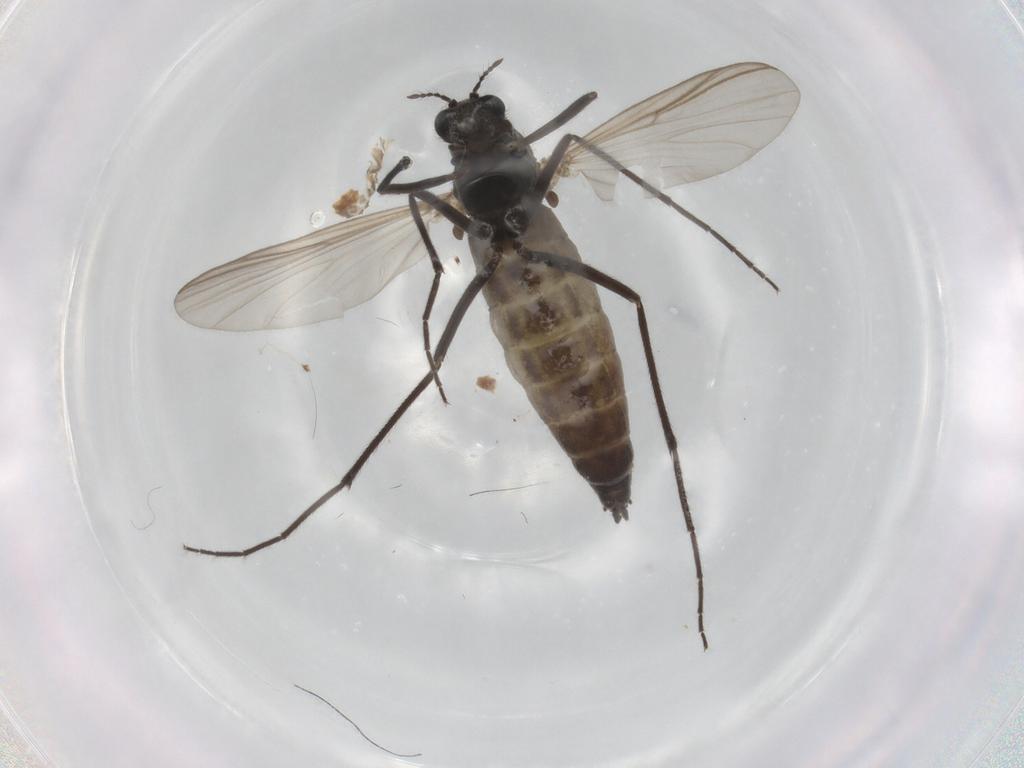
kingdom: Animalia
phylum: Arthropoda
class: Insecta
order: Diptera
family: Chironomidae
